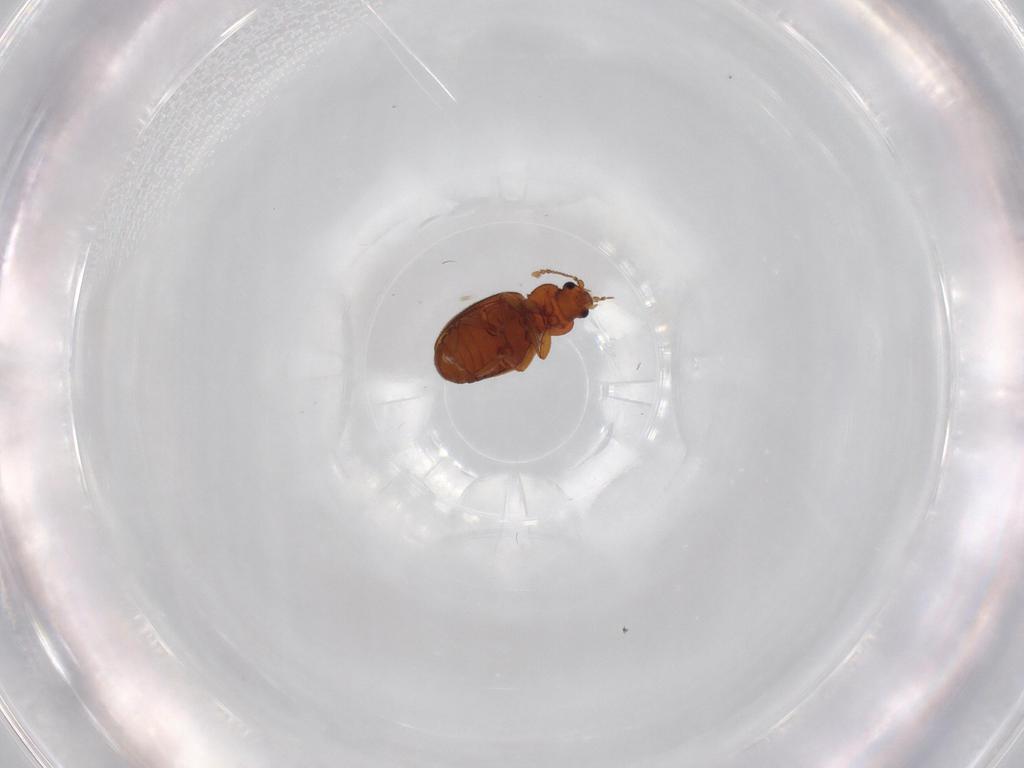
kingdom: Animalia
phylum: Arthropoda
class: Insecta
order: Coleoptera
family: Latridiidae
